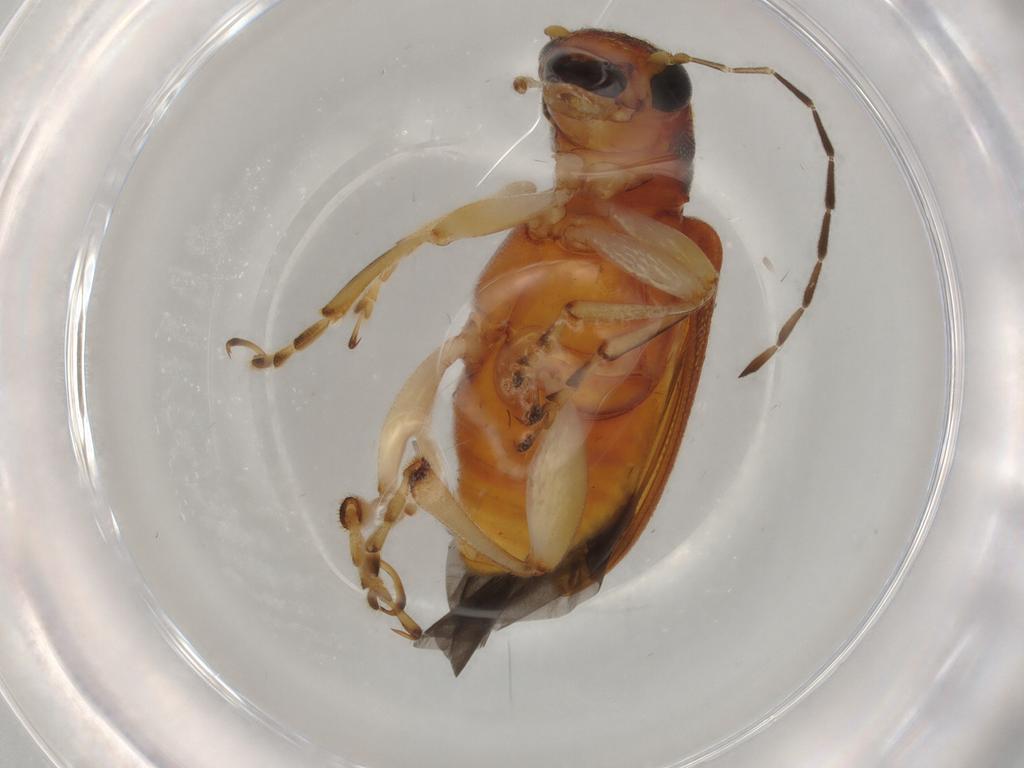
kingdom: Animalia
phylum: Arthropoda
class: Insecta
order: Coleoptera
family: Chrysomelidae
